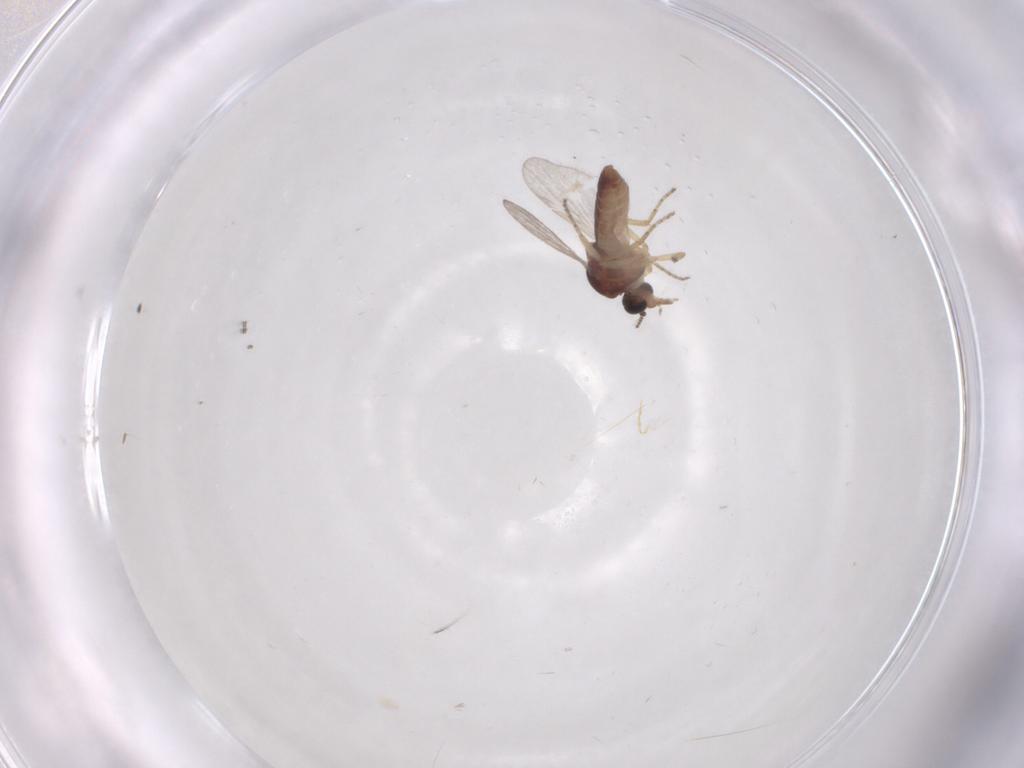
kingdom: Animalia
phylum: Arthropoda
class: Insecta
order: Diptera
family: Ceratopogonidae
